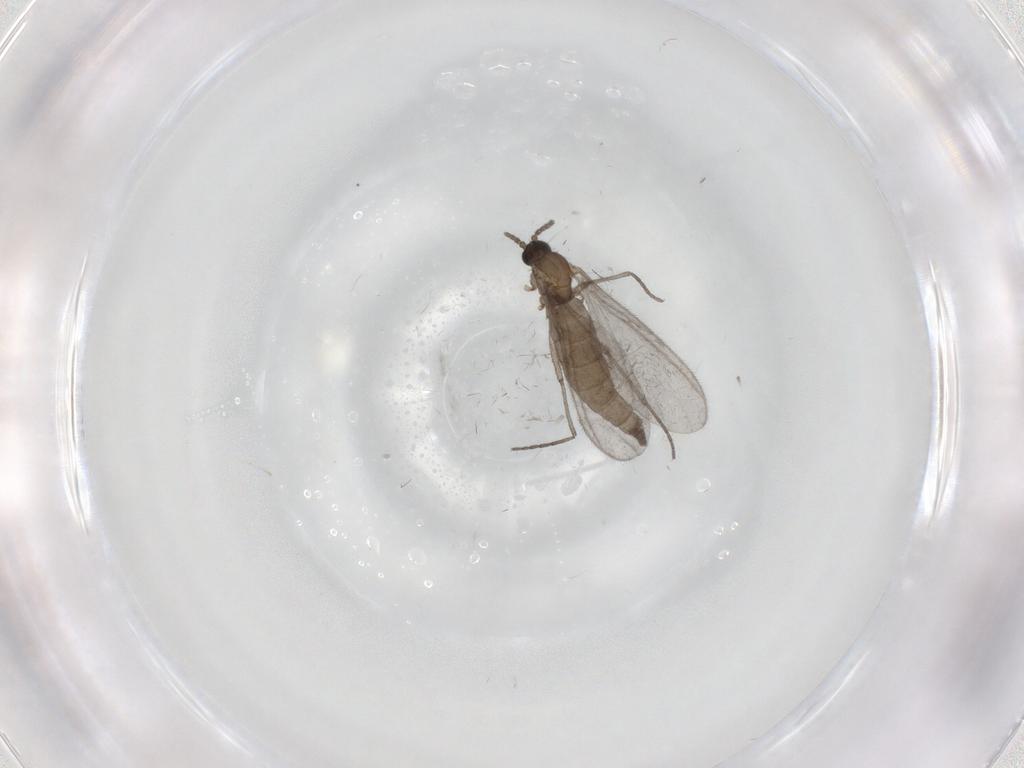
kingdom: Animalia
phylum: Arthropoda
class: Insecta
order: Diptera
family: Sciaridae
